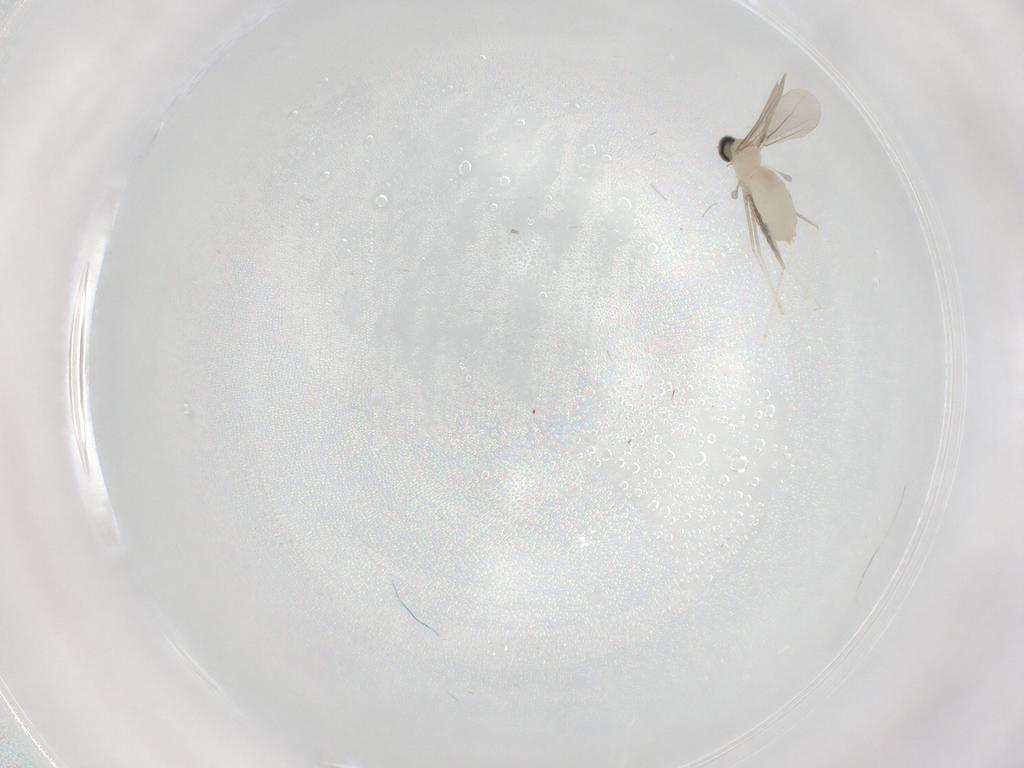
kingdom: Animalia
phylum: Arthropoda
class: Insecta
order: Diptera
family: Cecidomyiidae
